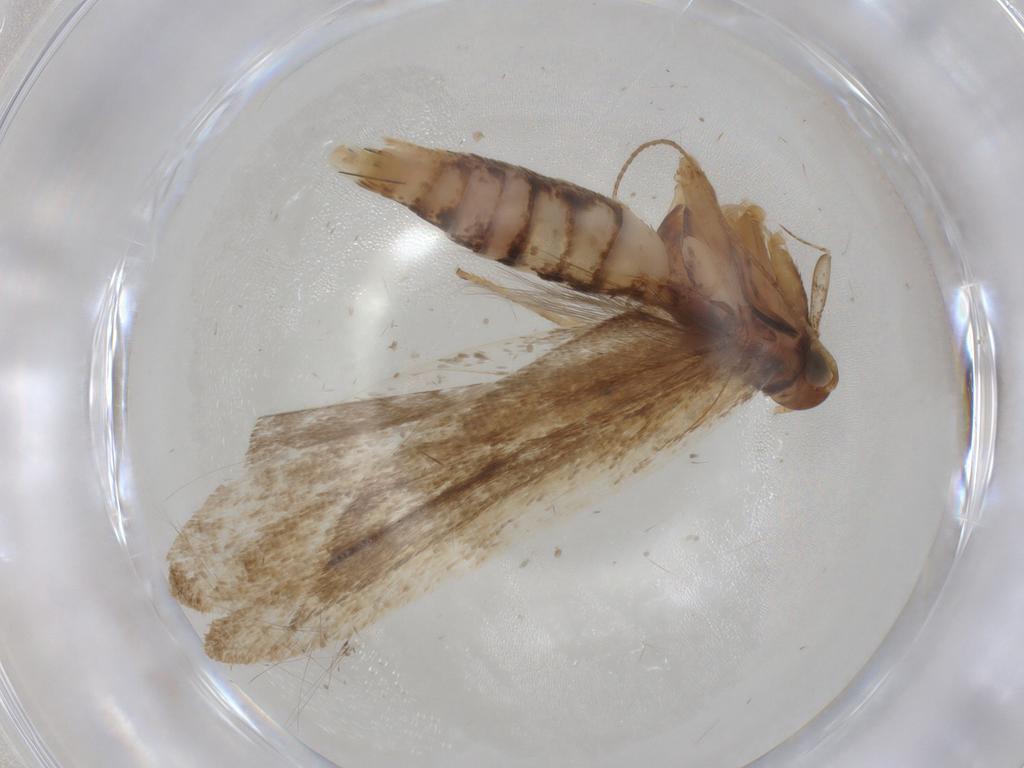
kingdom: Animalia
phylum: Arthropoda
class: Insecta
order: Lepidoptera
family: Gelechiidae
